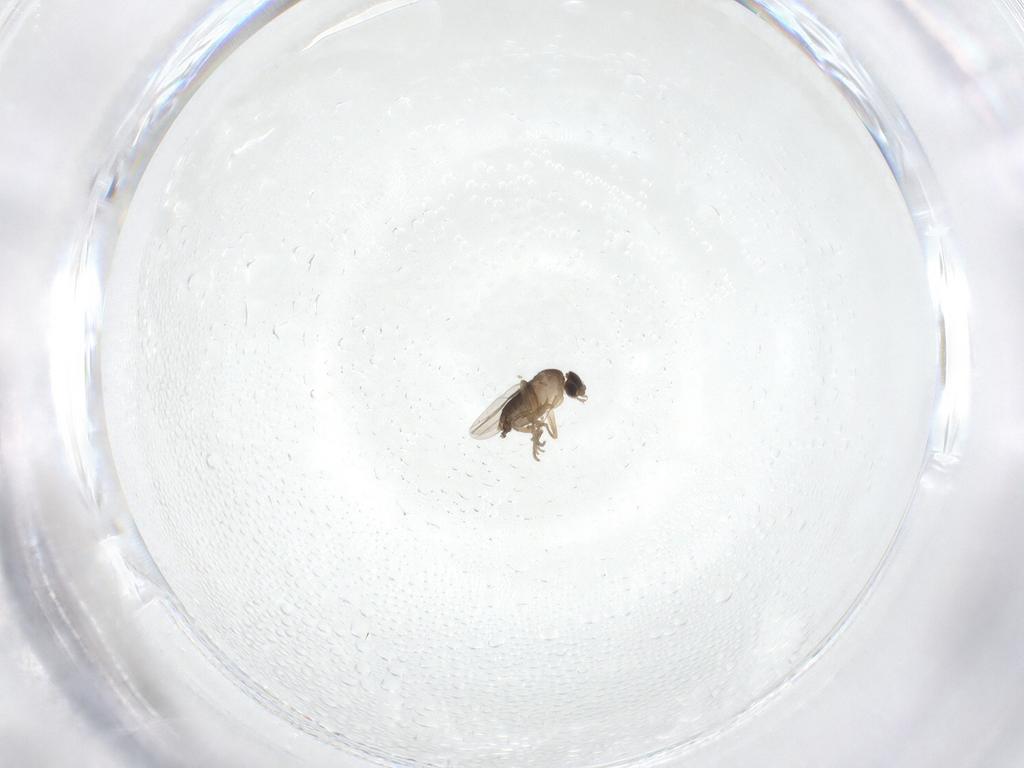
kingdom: Animalia
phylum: Arthropoda
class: Insecta
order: Diptera
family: Phoridae
